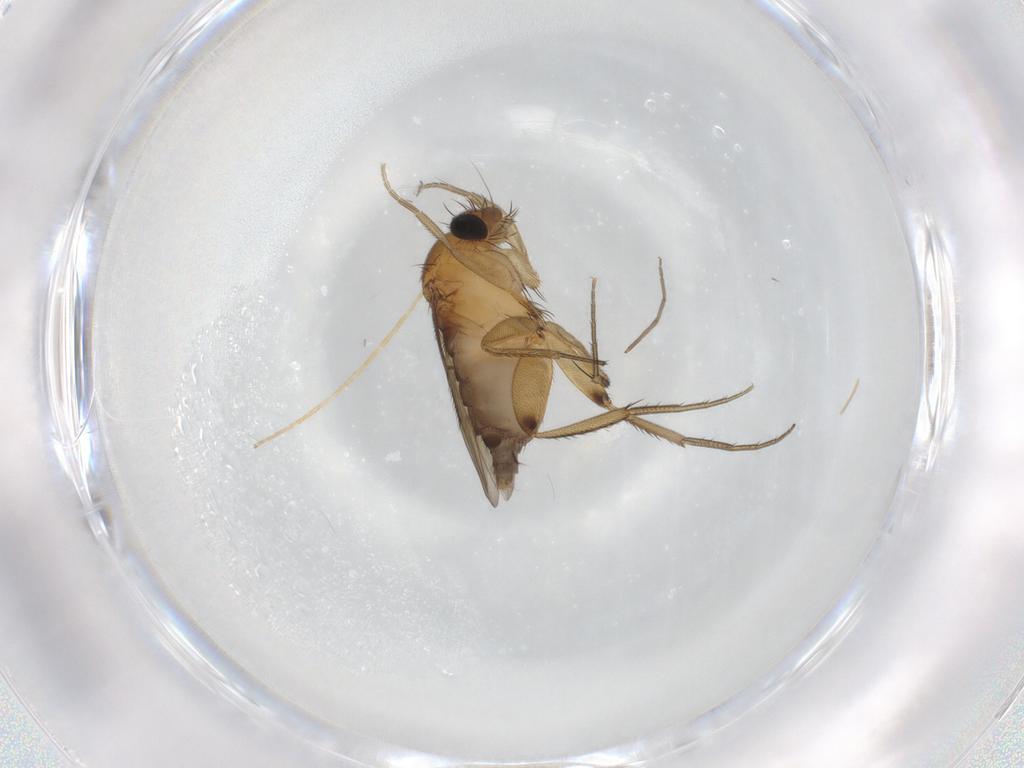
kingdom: Animalia
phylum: Arthropoda
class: Insecta
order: Diptera
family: Phoridae
